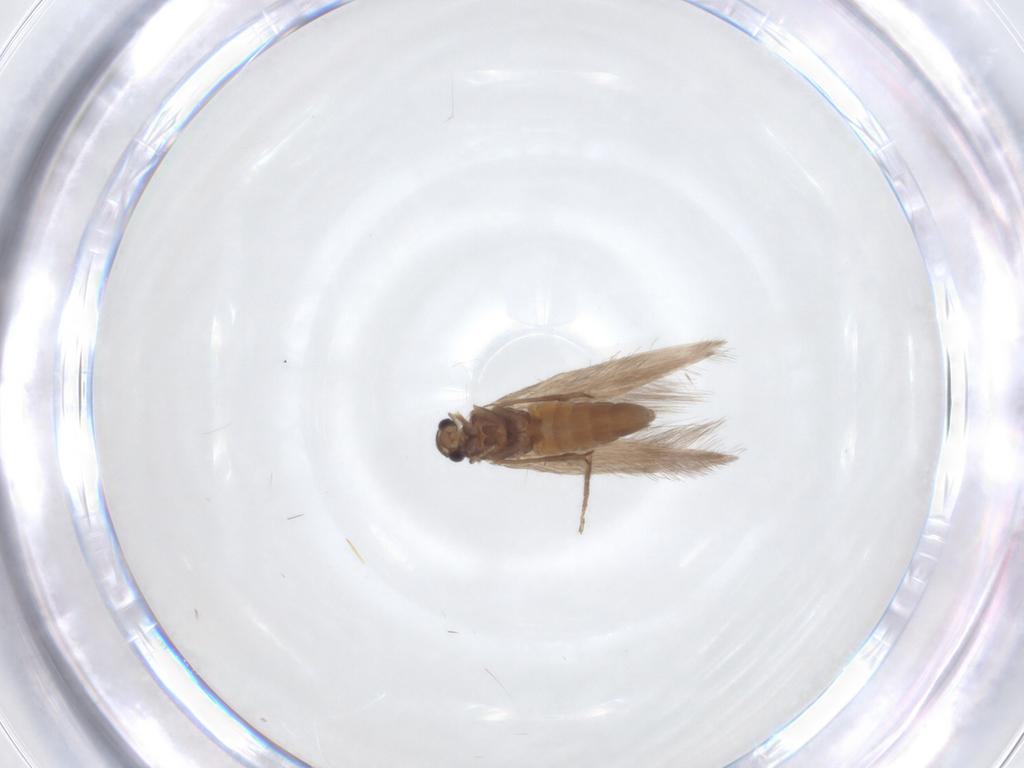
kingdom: Animalia
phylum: Arthropoda
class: Insecta
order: Trichoptera
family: Hydroptilidae
